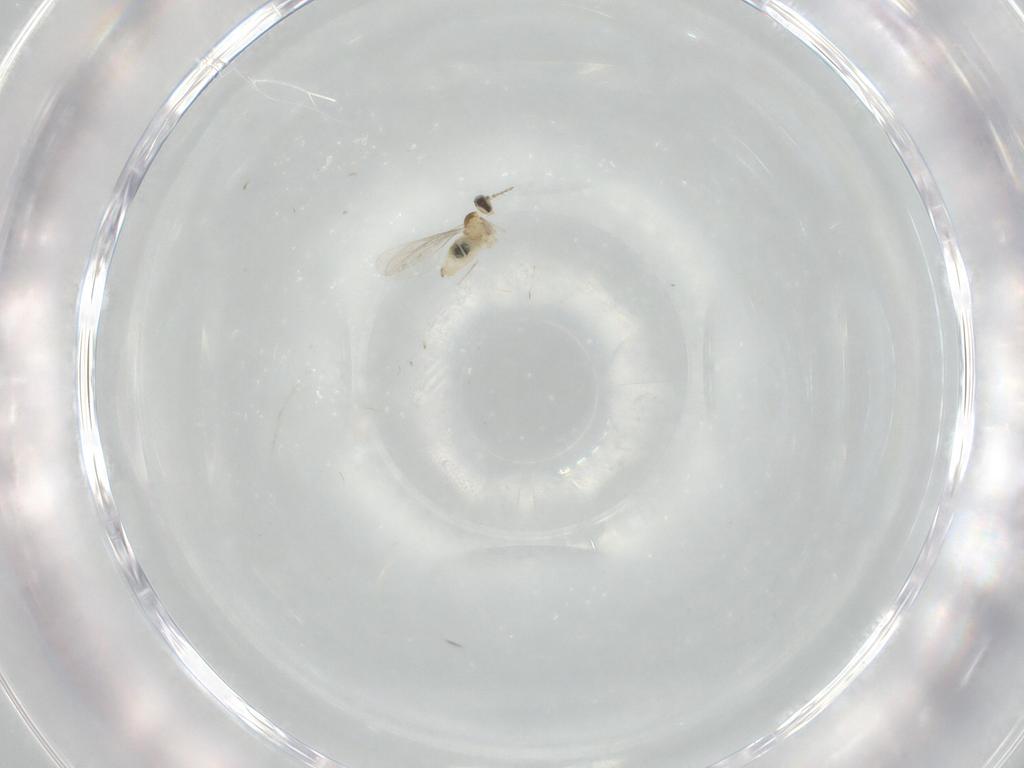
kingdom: Animalia
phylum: Arthropoda
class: Insecta
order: Diptera
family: Cecidomyiidae
